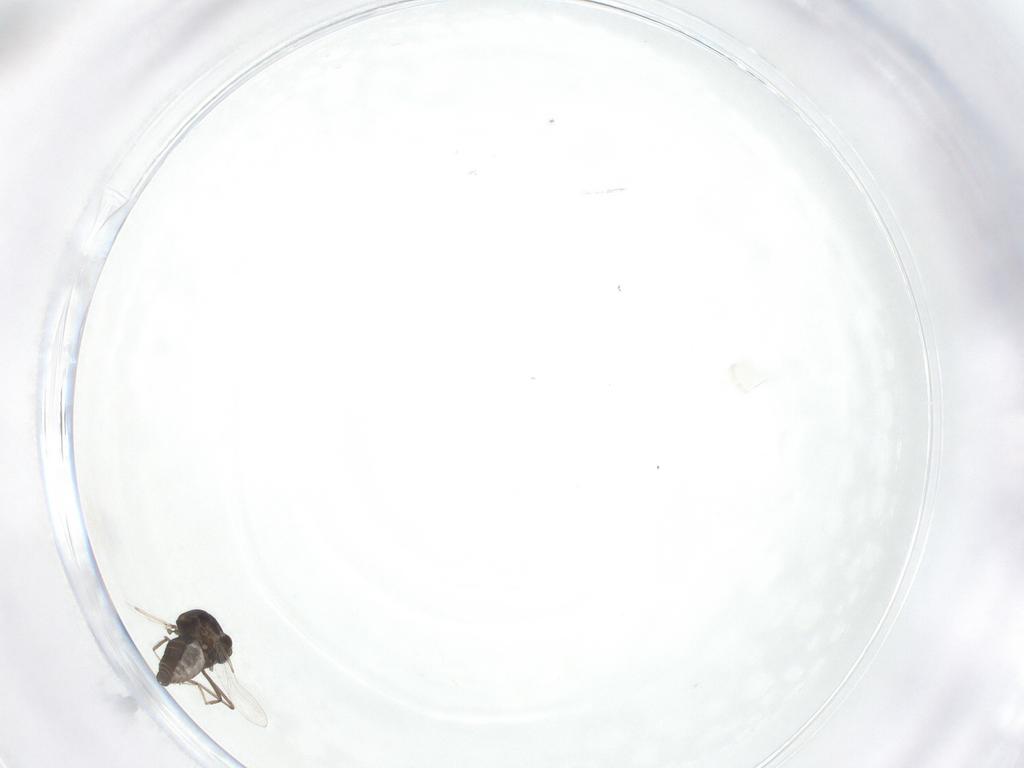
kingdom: Animalia
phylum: Arthropoda
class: Insecta
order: Diptera
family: Ceratopogonidae
